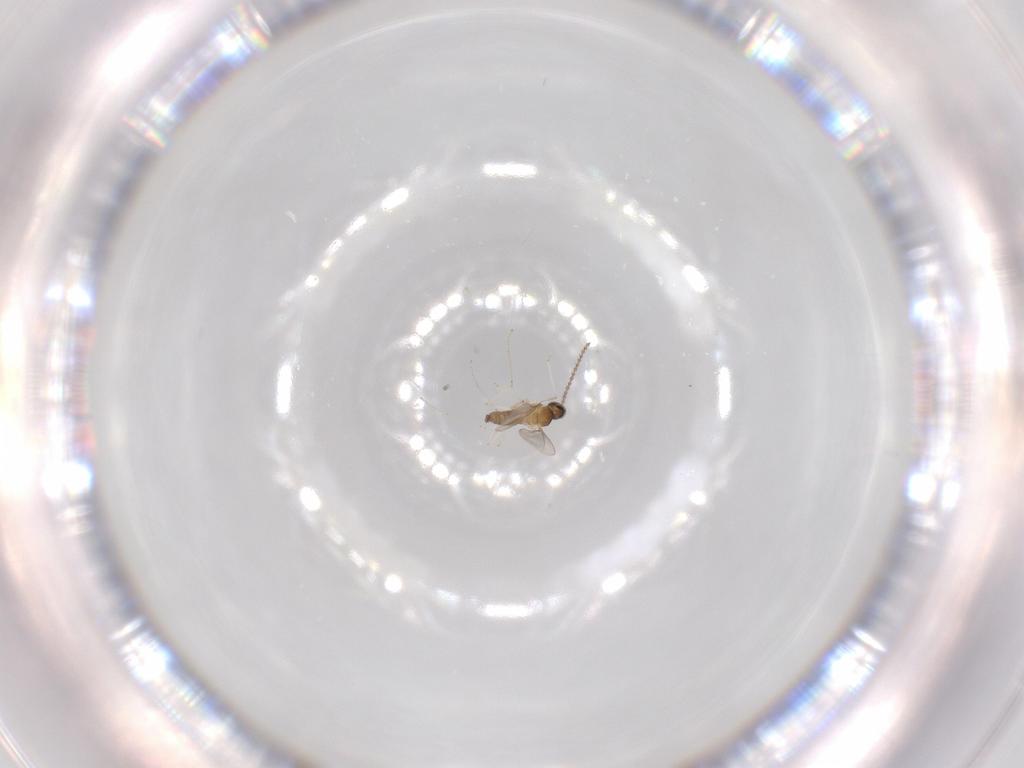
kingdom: Animalia
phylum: Arthropoda
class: Insecta
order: Diptera
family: Cecidomyiidae
